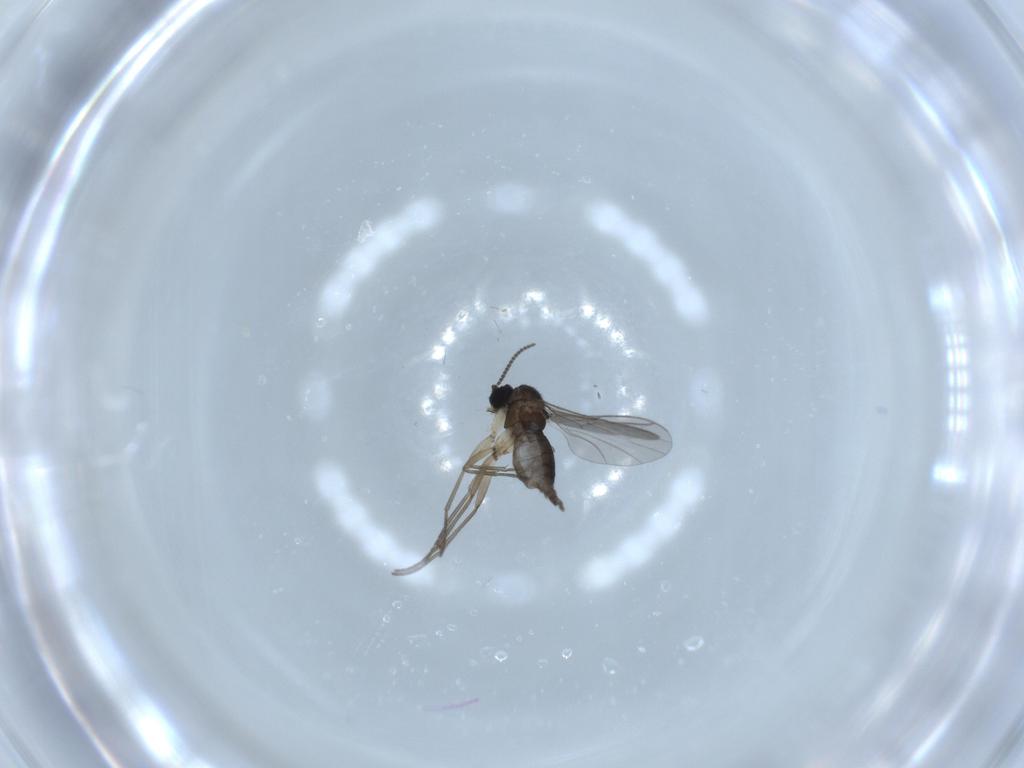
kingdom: Animalia
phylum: Arthropoda
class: Insecta
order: Diptera
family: Sciaridae
